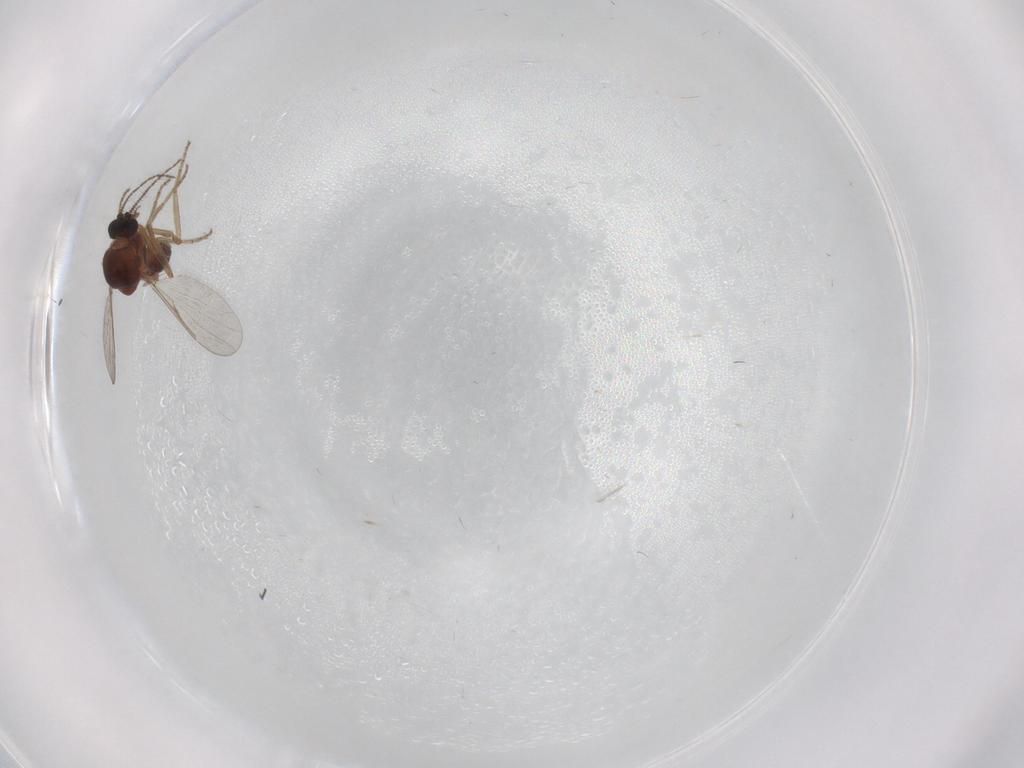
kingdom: Animalia
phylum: Arthropoda
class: Insecta
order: Diptera
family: Ceratopogonidae
